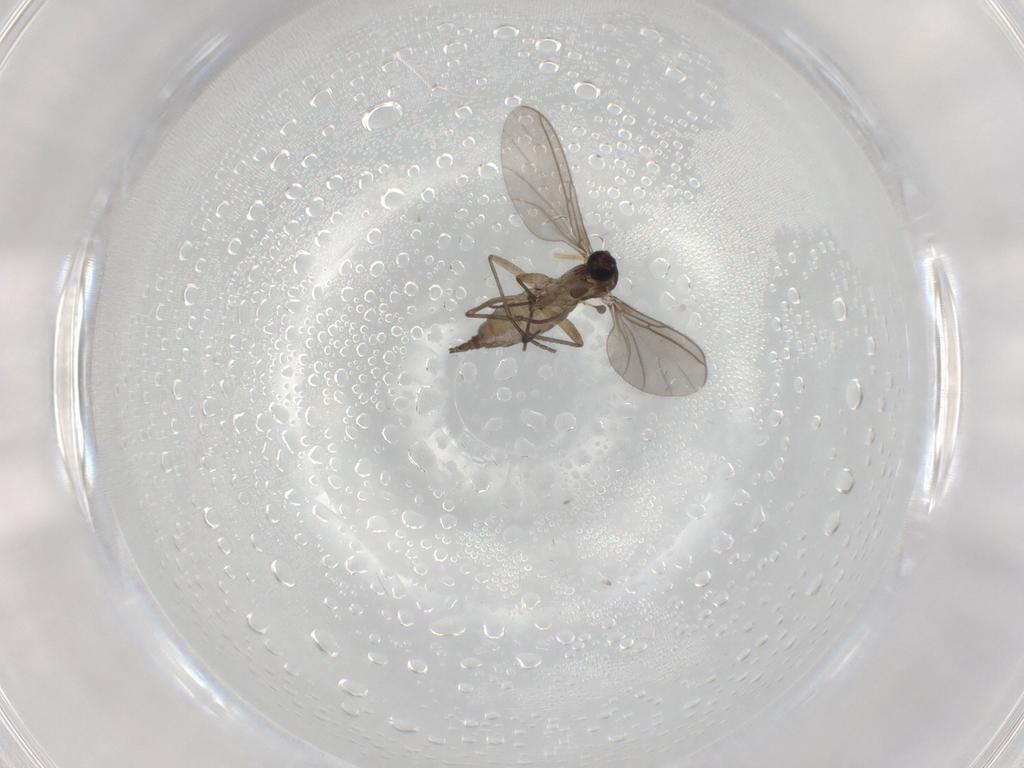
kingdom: Animalia
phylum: Arthropoda
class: Insecta
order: Diptera
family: Sciaridae
